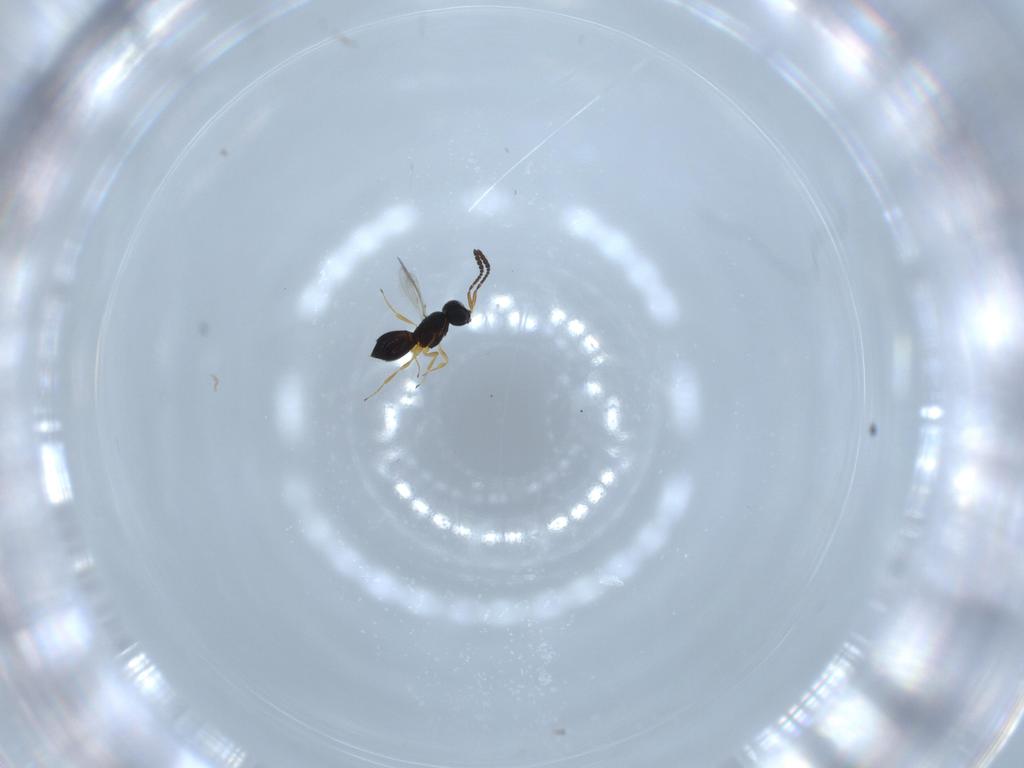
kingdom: Animalia
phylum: Arthropoda
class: Insecta
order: Hymenoptera
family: Scelionidae
